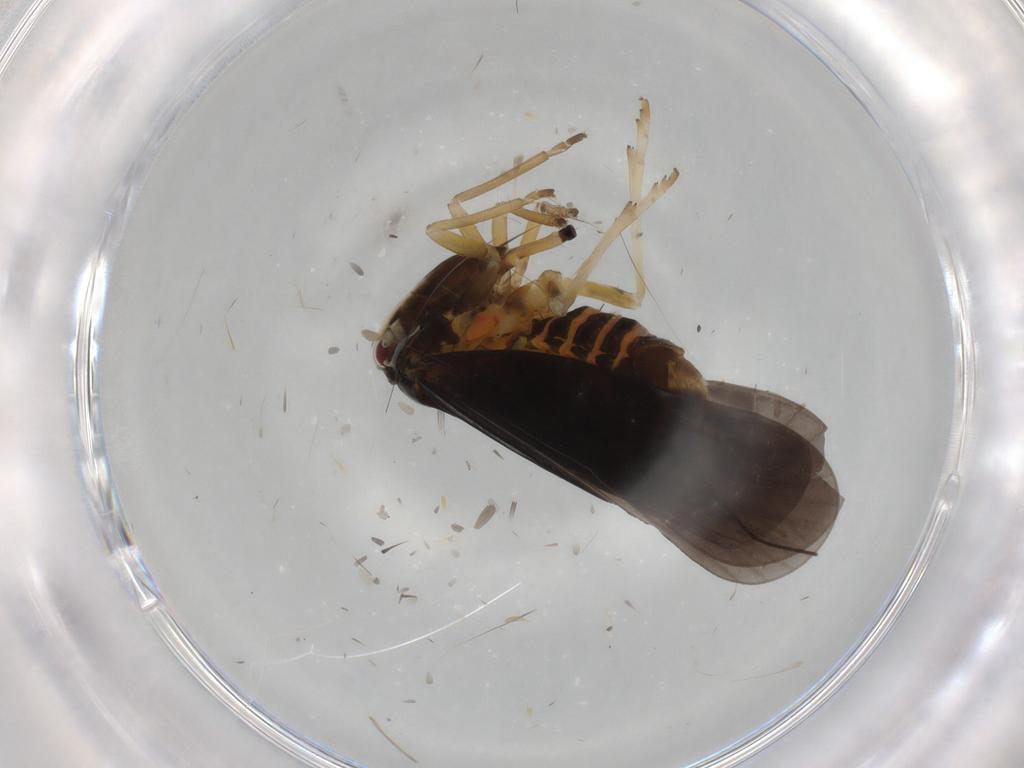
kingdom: Animalia
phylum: Arthropoda
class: Insecta
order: Hemiptera
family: Derbidae
